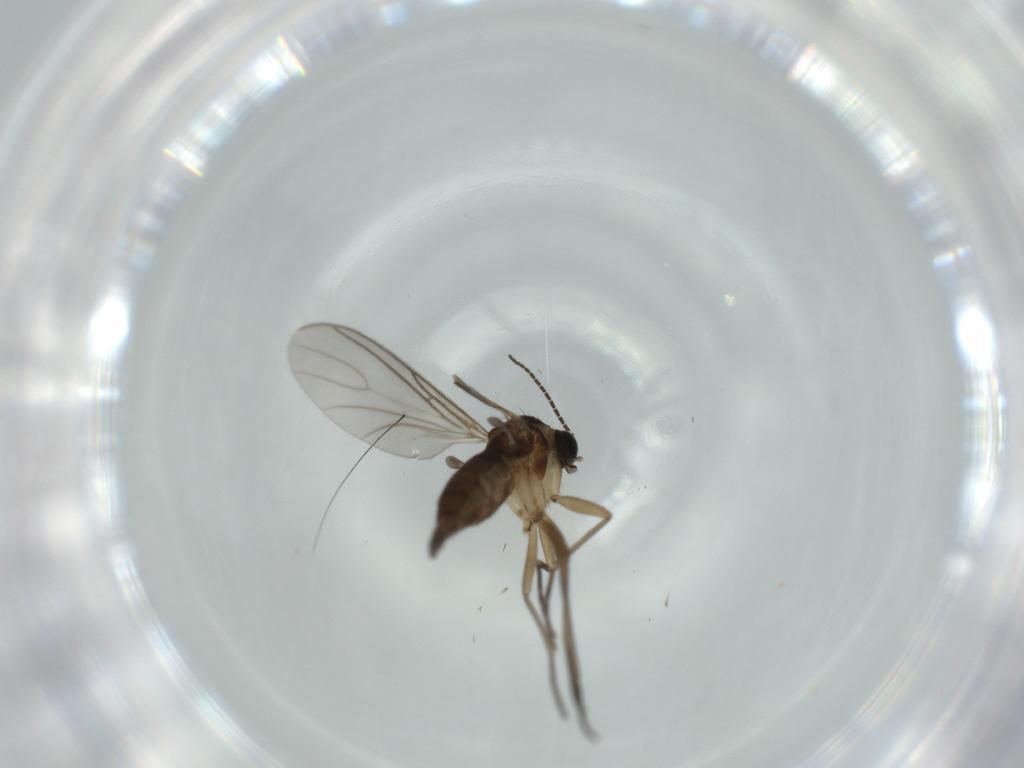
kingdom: Animalia
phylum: Arthropoda
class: Insecta
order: Diptera
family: Sciaridae
